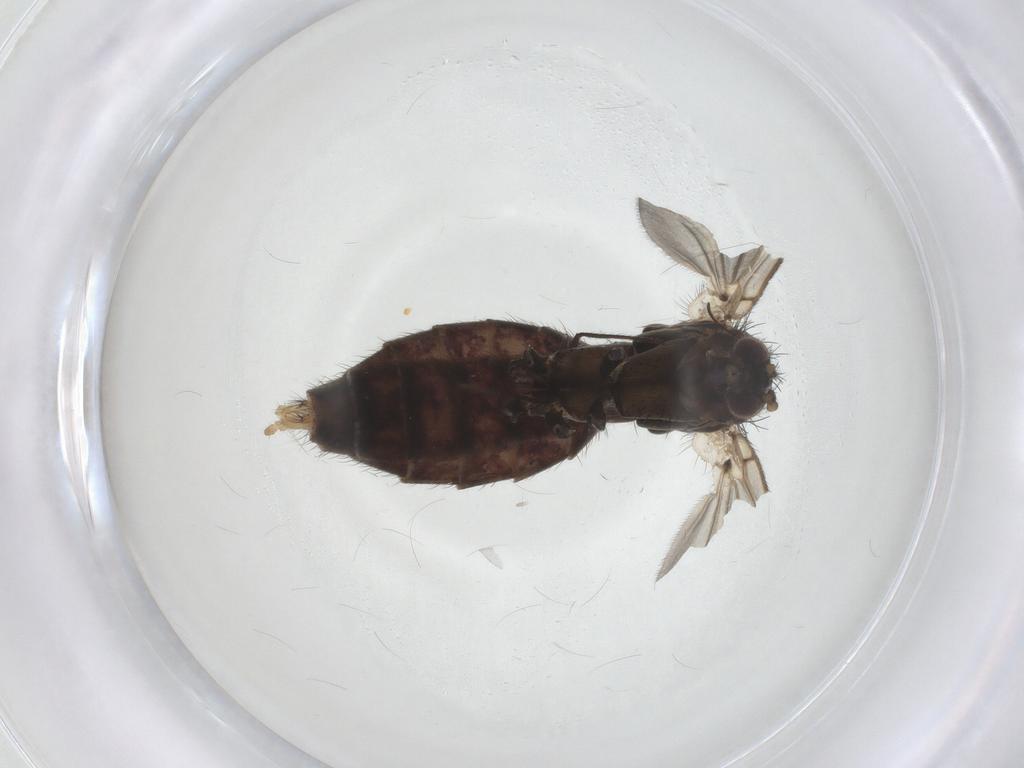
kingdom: Animalia
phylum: Arthropoda
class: Insecta
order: Diptera
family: Mycetophilidae
